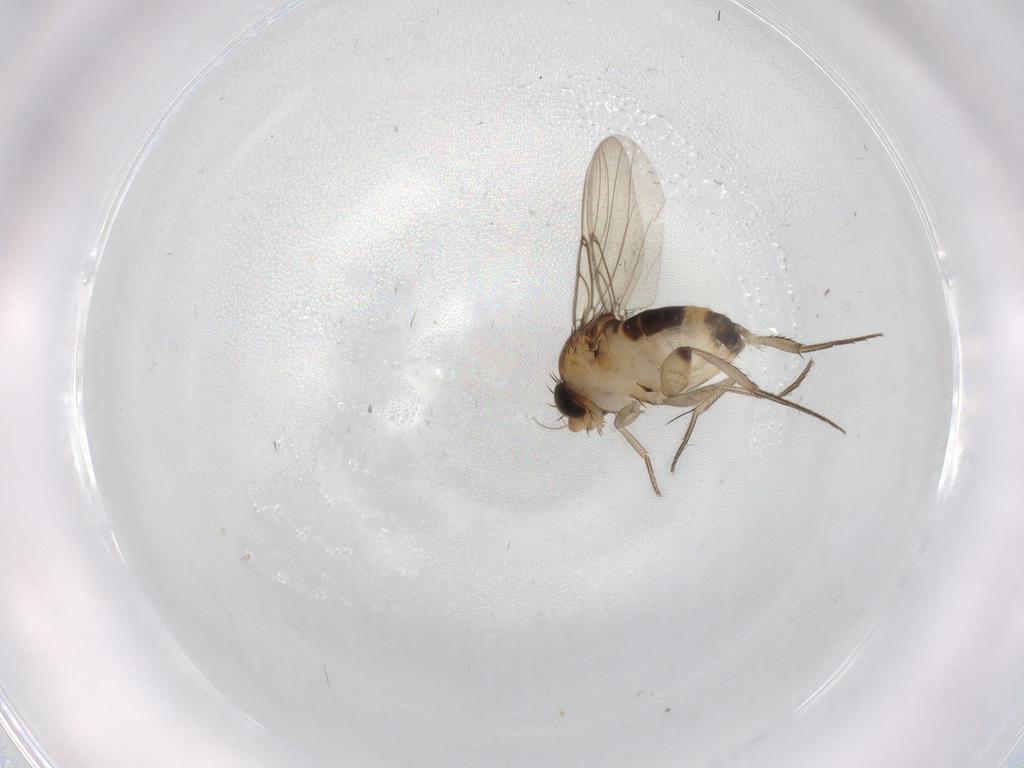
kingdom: Animalia
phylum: Arthropoda
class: Insecta
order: Diptera
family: Phoridae
